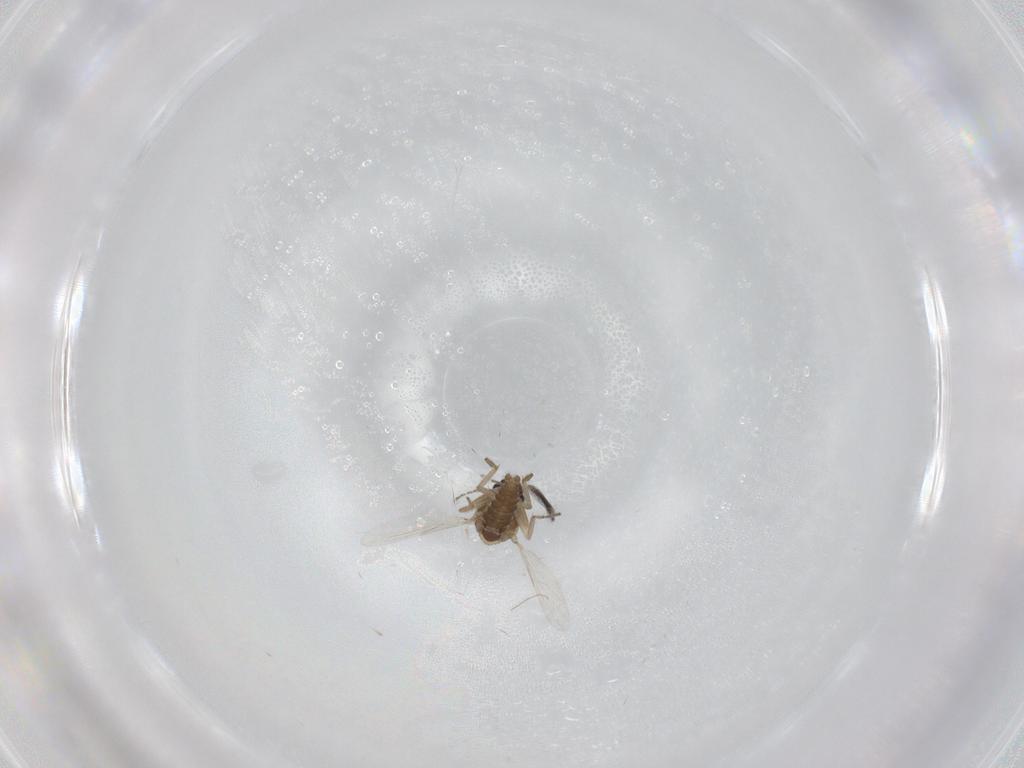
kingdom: Animalia
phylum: Arthropoda
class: Insecta
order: Diptera
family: Chironomidae
